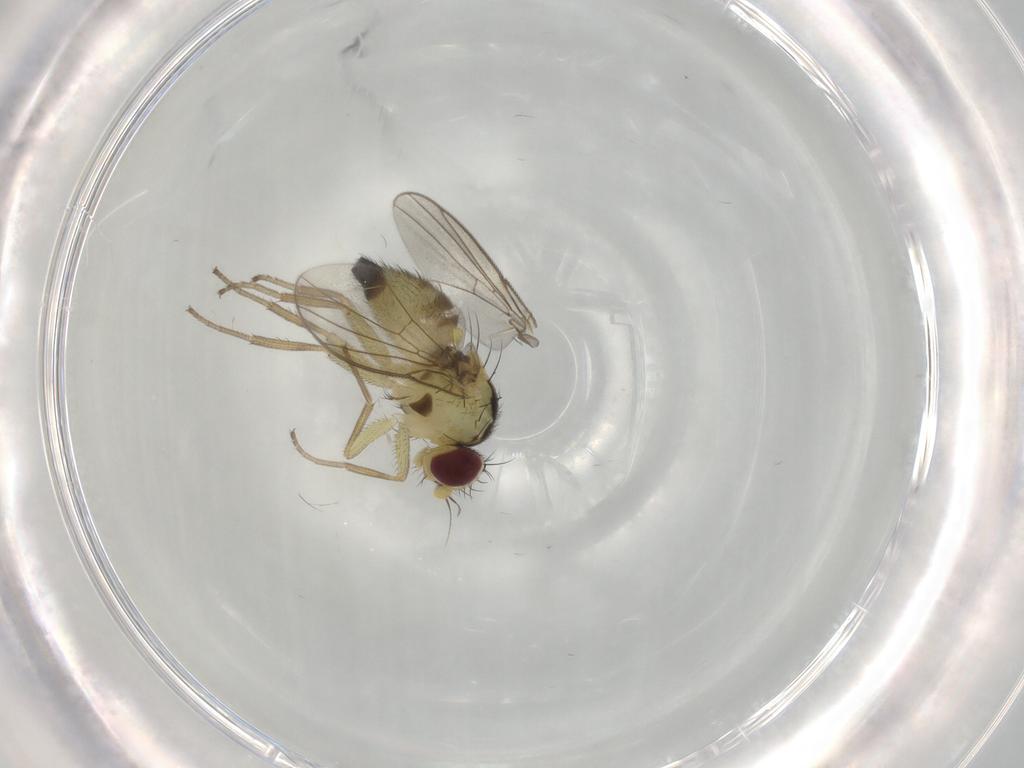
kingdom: Animalia
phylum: Arthropoda
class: Insecta
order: Diptera
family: Agromyzidae
